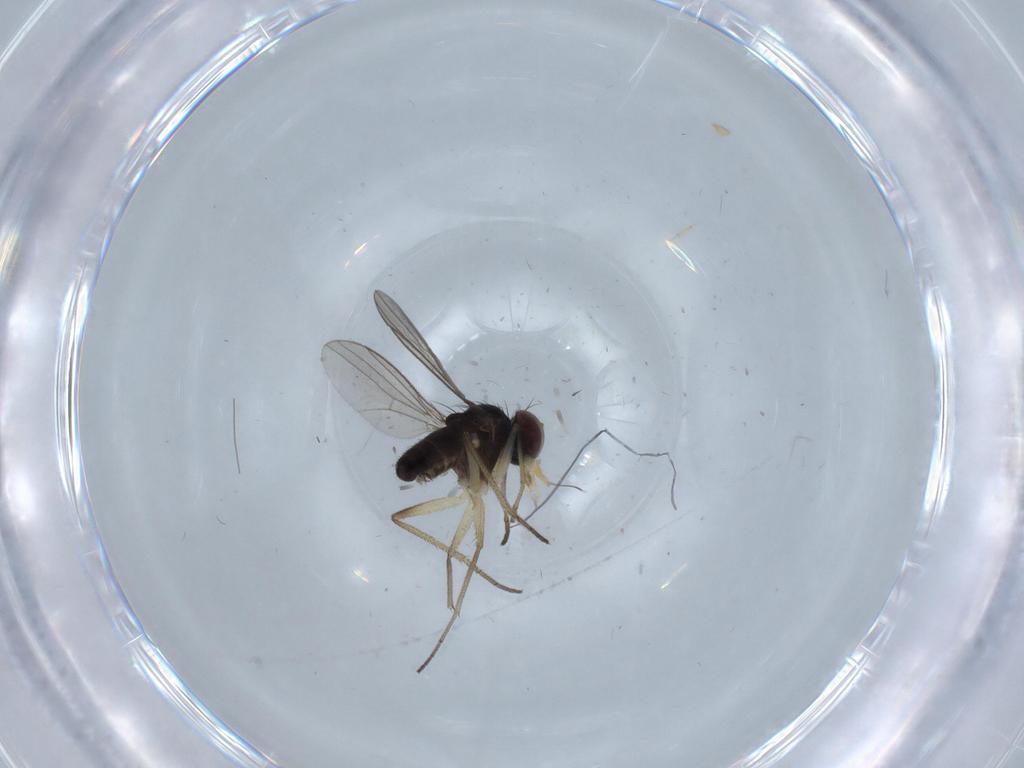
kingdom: Animalia
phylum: Arthropoda
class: Insecta
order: Diptera
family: Dolichopodidae
